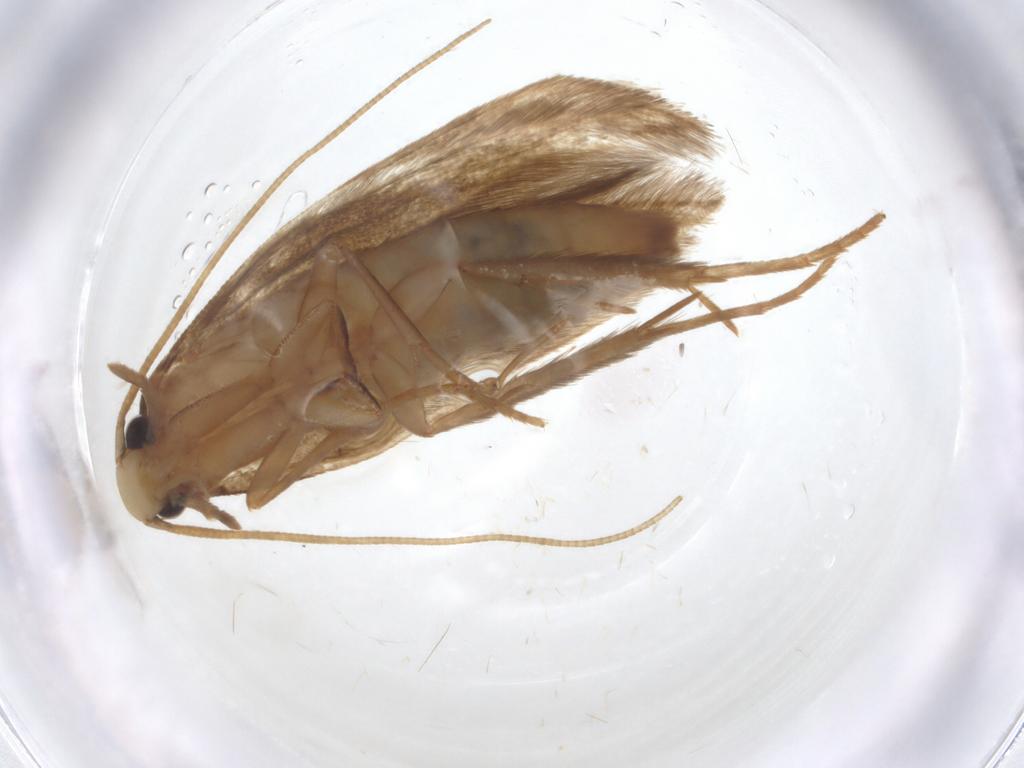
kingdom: Animalia
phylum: Arthropoda
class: Insecta
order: Lepidoptera
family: Tineidae
